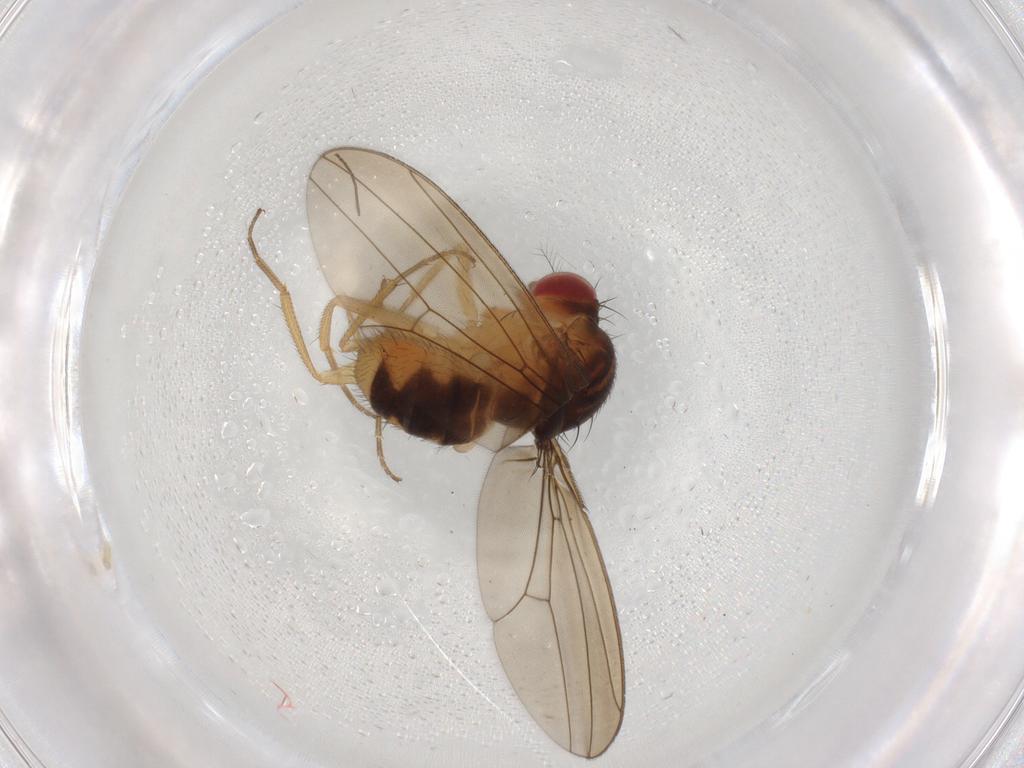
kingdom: Animalia
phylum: Arthropoda
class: Insecta
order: Diptera
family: Drosophilidae
